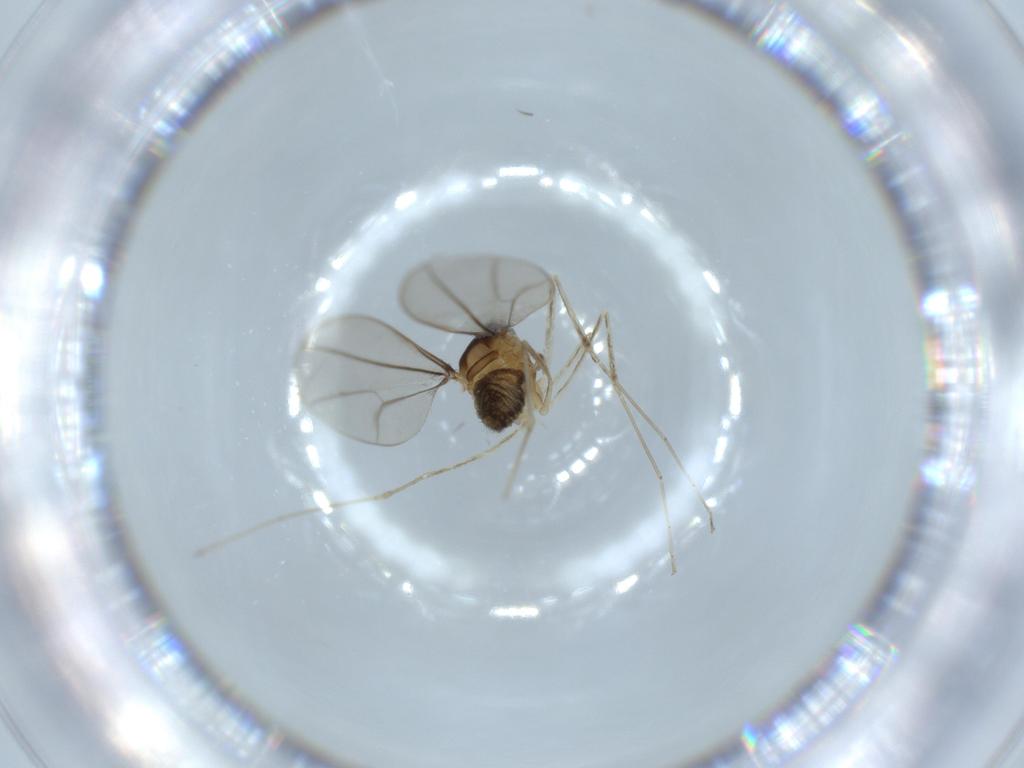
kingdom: Animalia
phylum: Arthropoda
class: Insecta
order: Diptera
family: Cecidomyiidae
